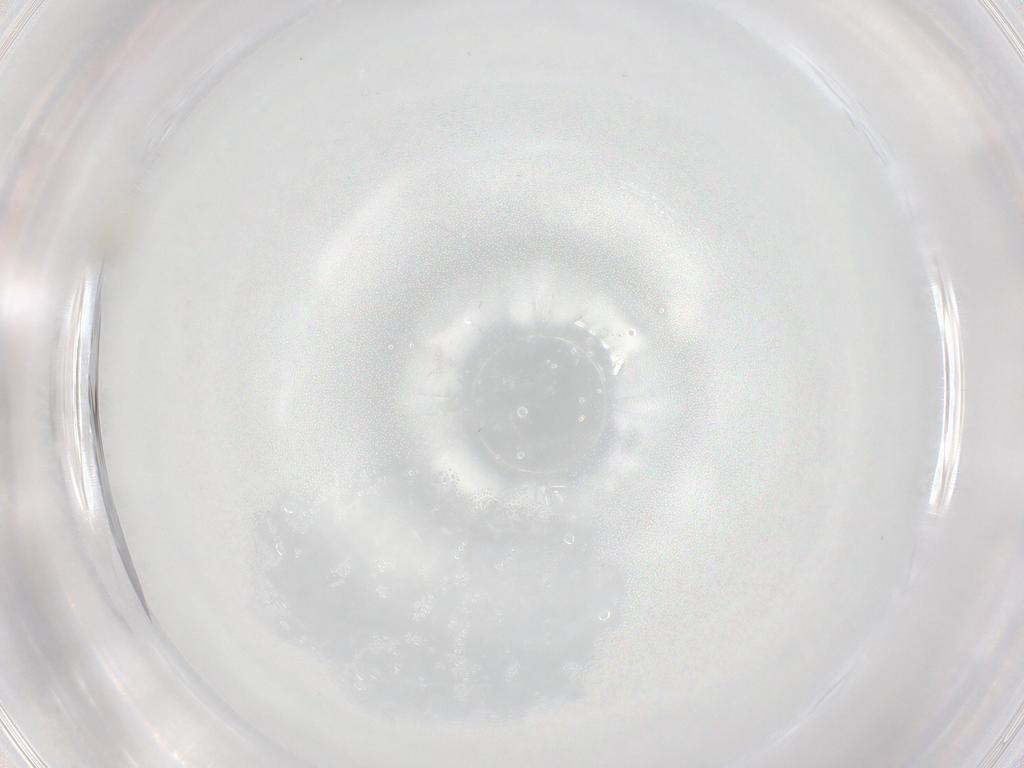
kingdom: Animalia
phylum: Arthropoda
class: Insecta
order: Diptera
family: Cecidomyiidae
